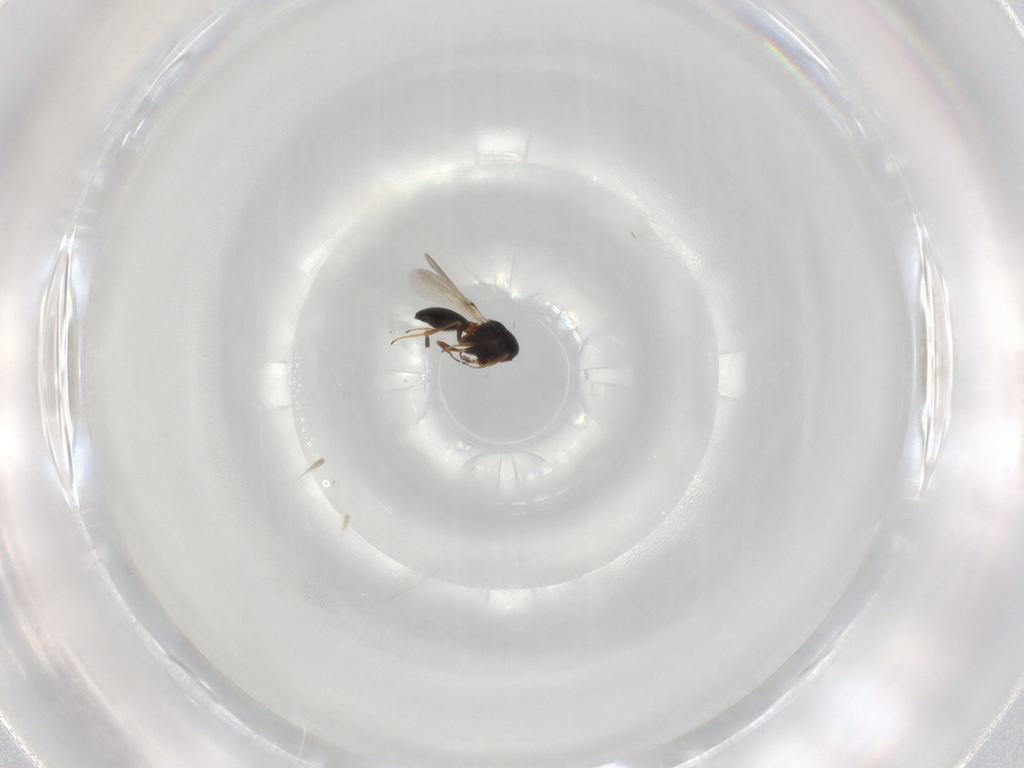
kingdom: Animalia
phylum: Arthropoda
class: Insecta
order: Hymenoptera
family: Scelionidae
